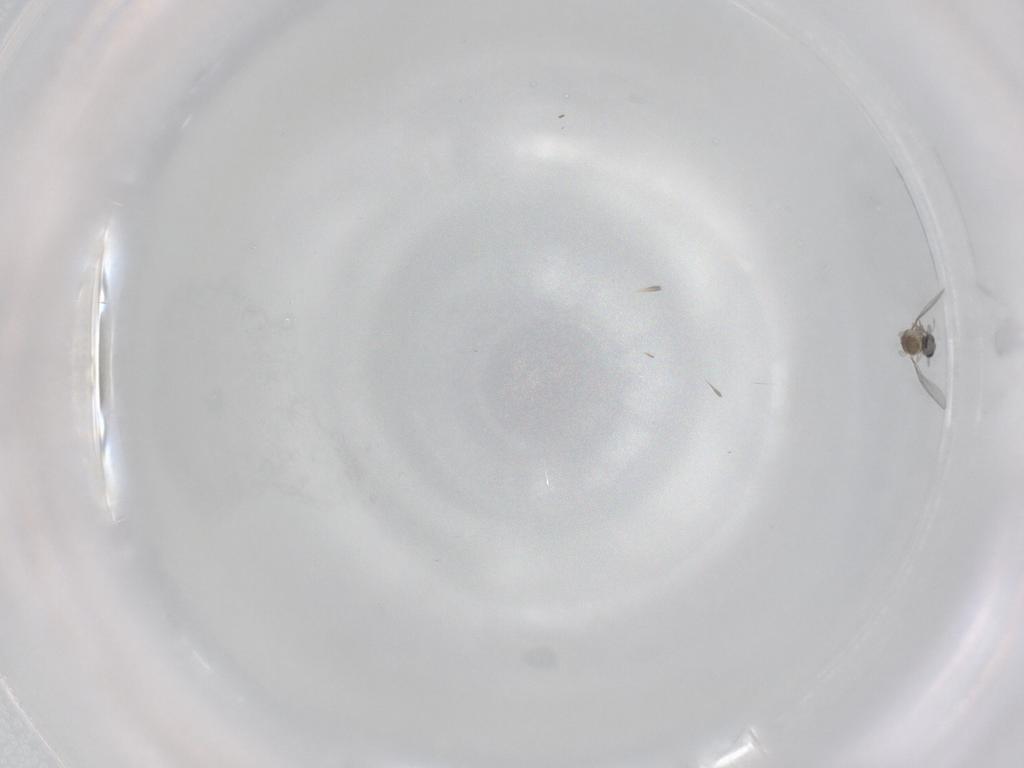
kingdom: Animalia
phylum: Arthropoda
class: Insecta
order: Diptera
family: Cecidomyiidae
